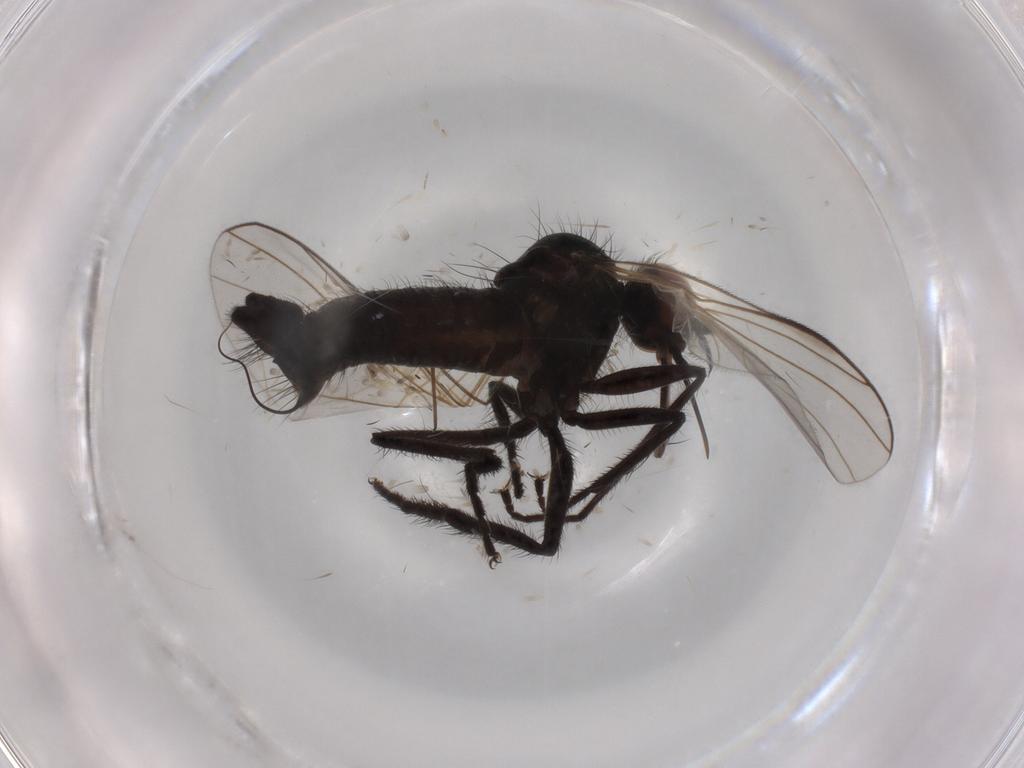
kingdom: Animalia
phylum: Arthropoda
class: Insecta
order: Diptera
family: Empididae
